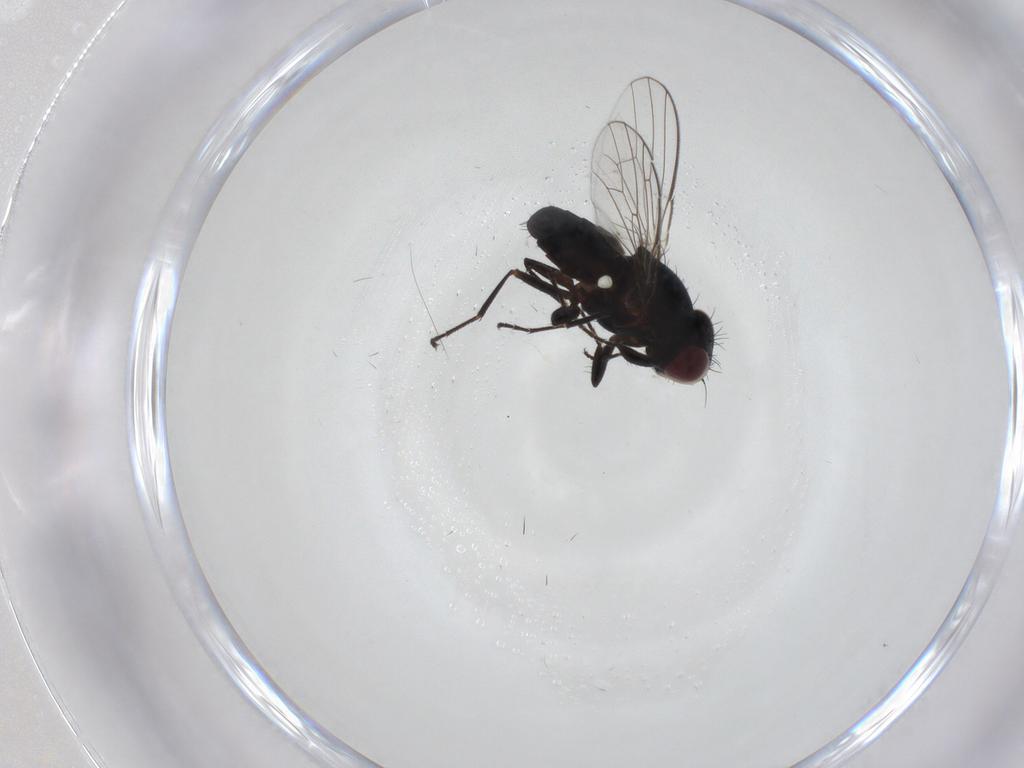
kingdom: Animalia
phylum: Arthropoda
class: Insecta
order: Diptera
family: Carnidae
